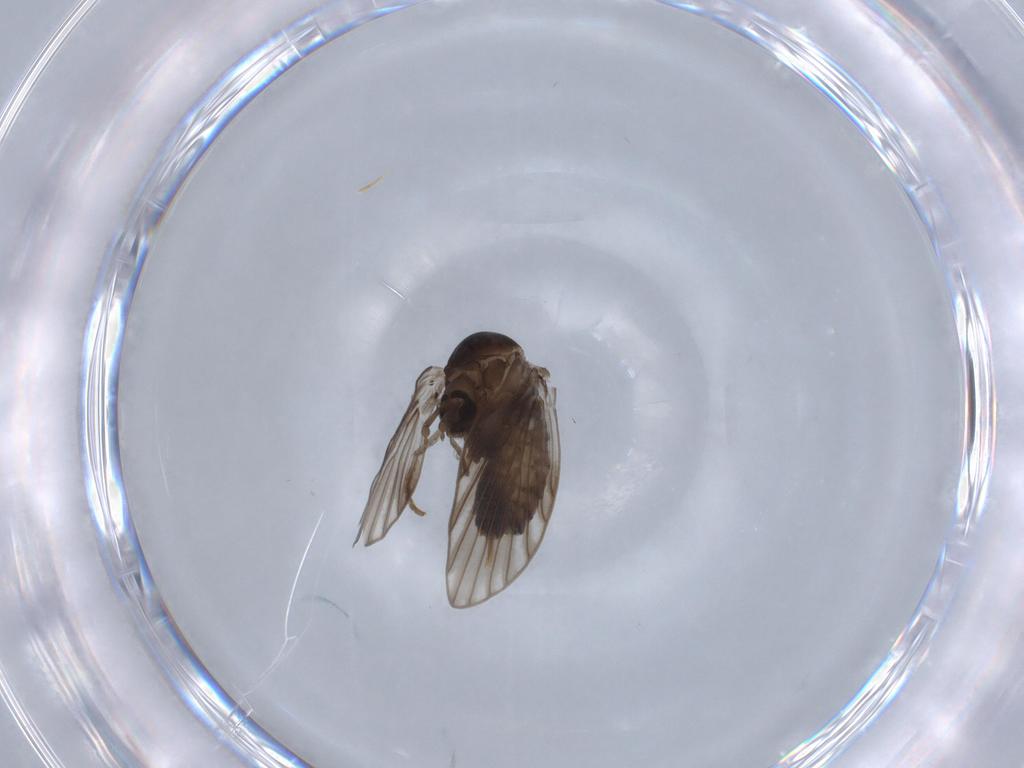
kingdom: Animalia
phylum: Arthropoda
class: Insecta
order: Diptera
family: Psychodidae
